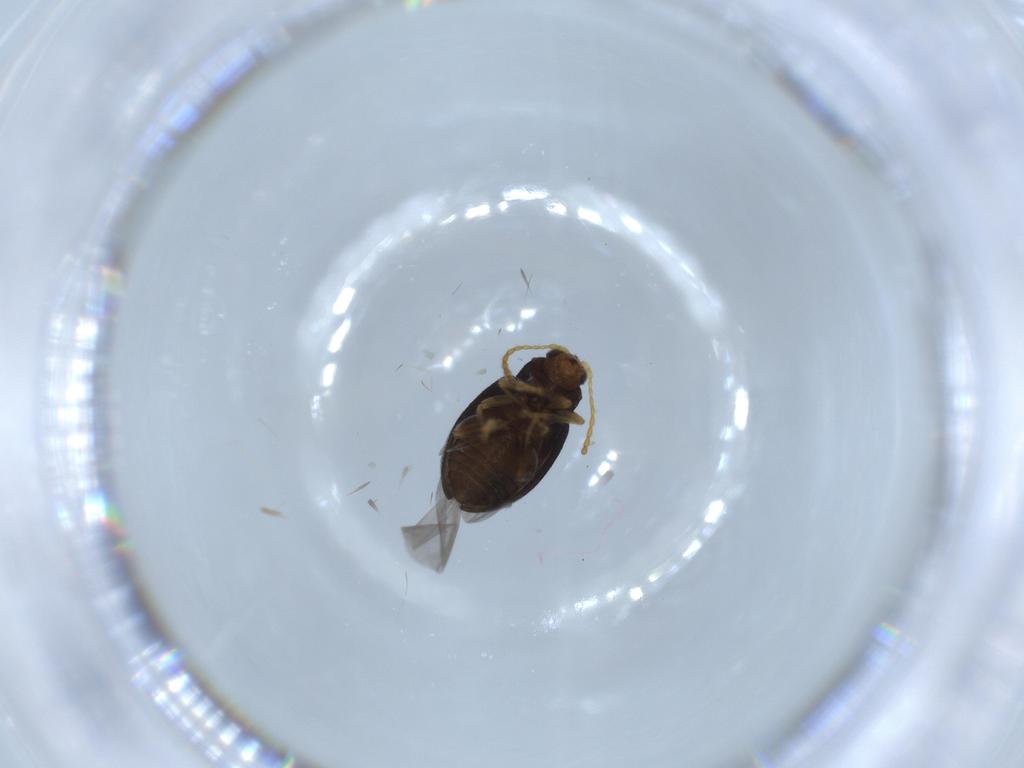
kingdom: Animalia
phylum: Arthropoda
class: Insecta
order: Coleoptera
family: Chrysomelidae
